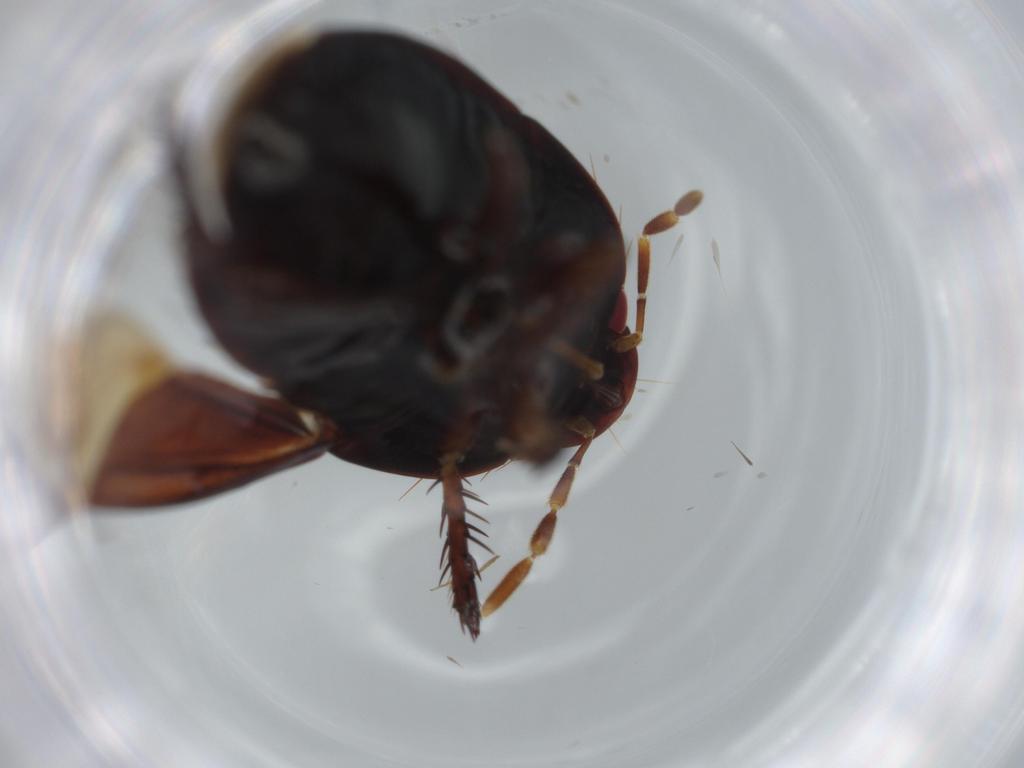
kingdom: Animalia
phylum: Arthropoda
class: Insecta
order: Hemiptera
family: Cydnidae
